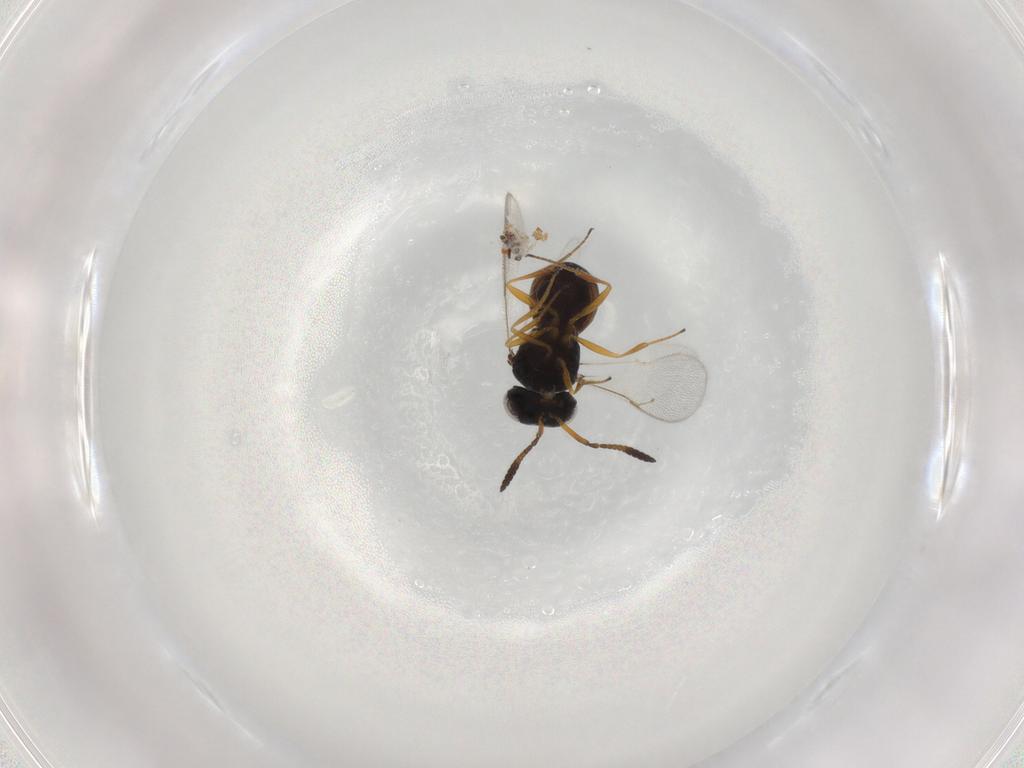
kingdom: Animalia
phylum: Arthropoda
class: Insecta
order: Hymenoptera
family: Scelionidae
